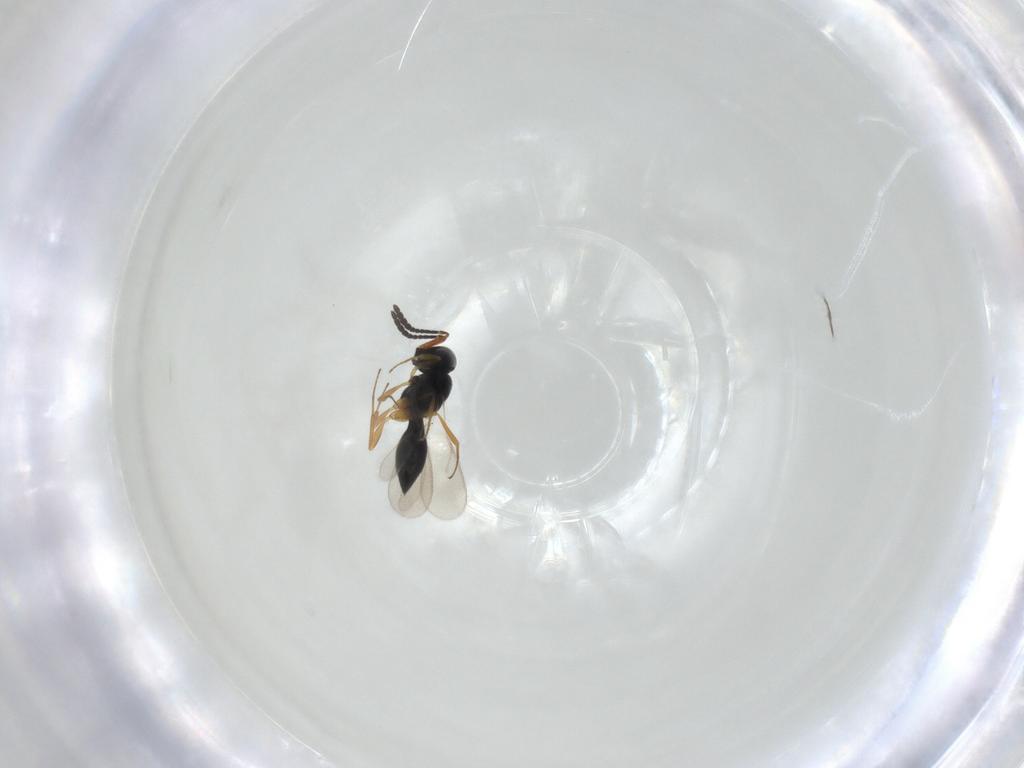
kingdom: Animalia
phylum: Arthropoda
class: Insecta
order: Hymenoptera
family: Scelionidae
